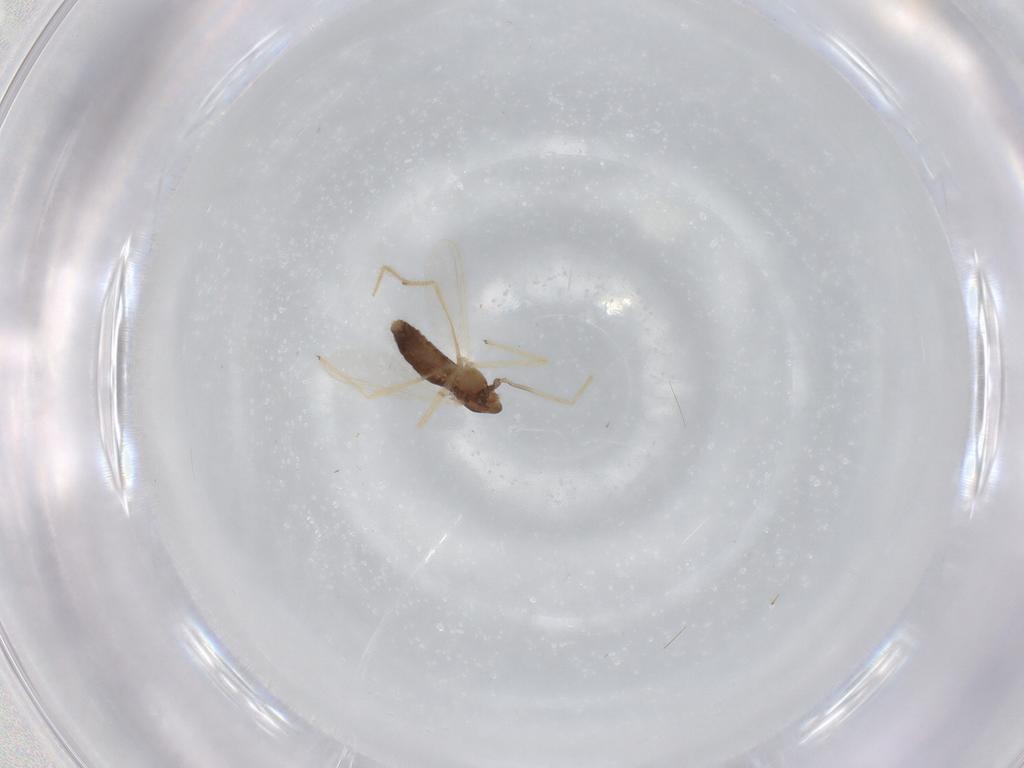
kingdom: Animalia
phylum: Arthropoda
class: Insecta
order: Diptera
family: Chironomidae
